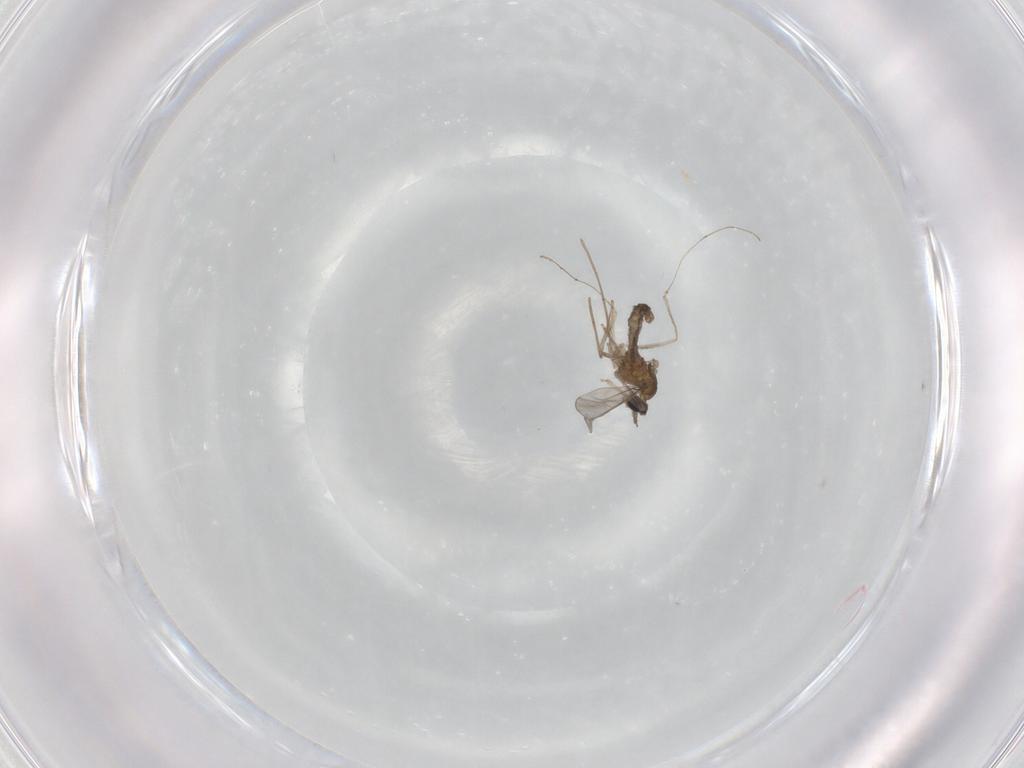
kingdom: Animalia
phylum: Arthropoda
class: Insecta
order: Diptera
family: Cecidomyiidae
